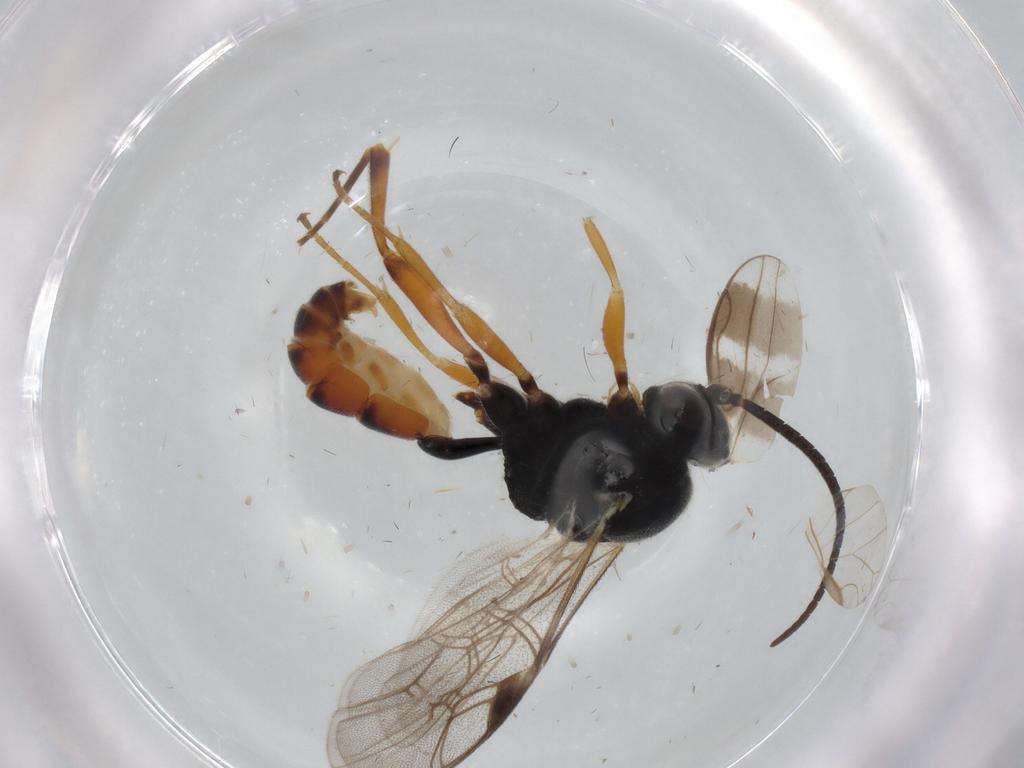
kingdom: Animalia
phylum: Arthropoda
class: Insecta
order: Hymenoptera
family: Ichneumonidae
